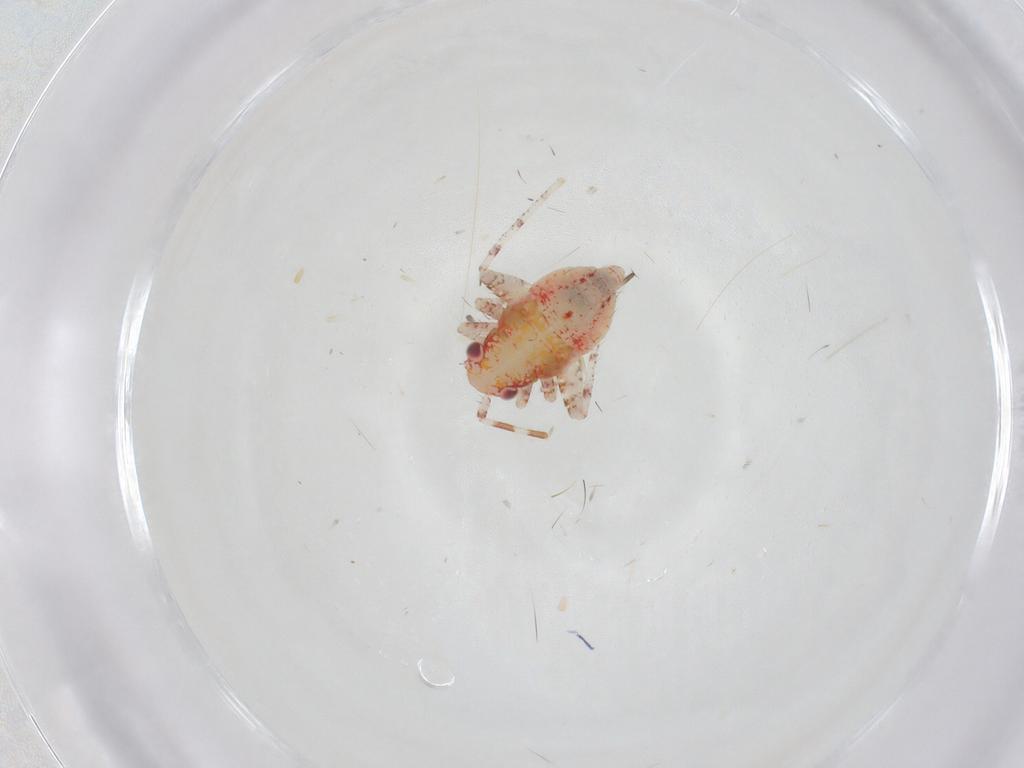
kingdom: Animalia
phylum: Arthropoda
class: Insecta
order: Hemiptera
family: Miridae
